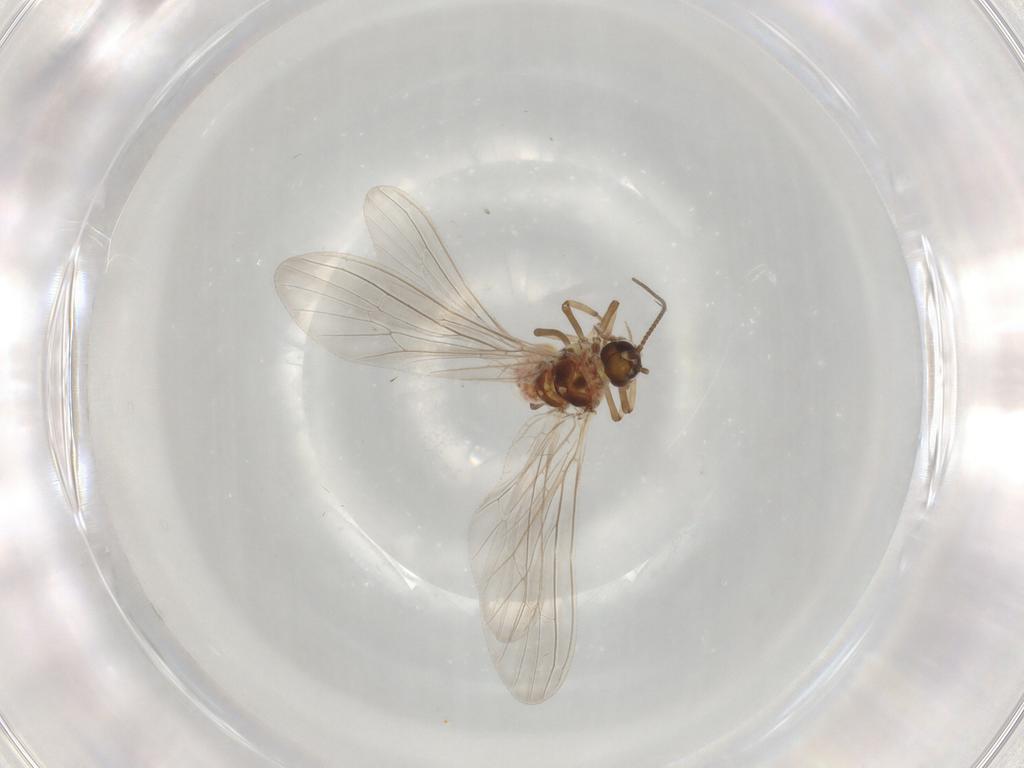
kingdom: Animalia
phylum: Arthropoda
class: Insecta
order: Neuroptera
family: Coniopterygidae
